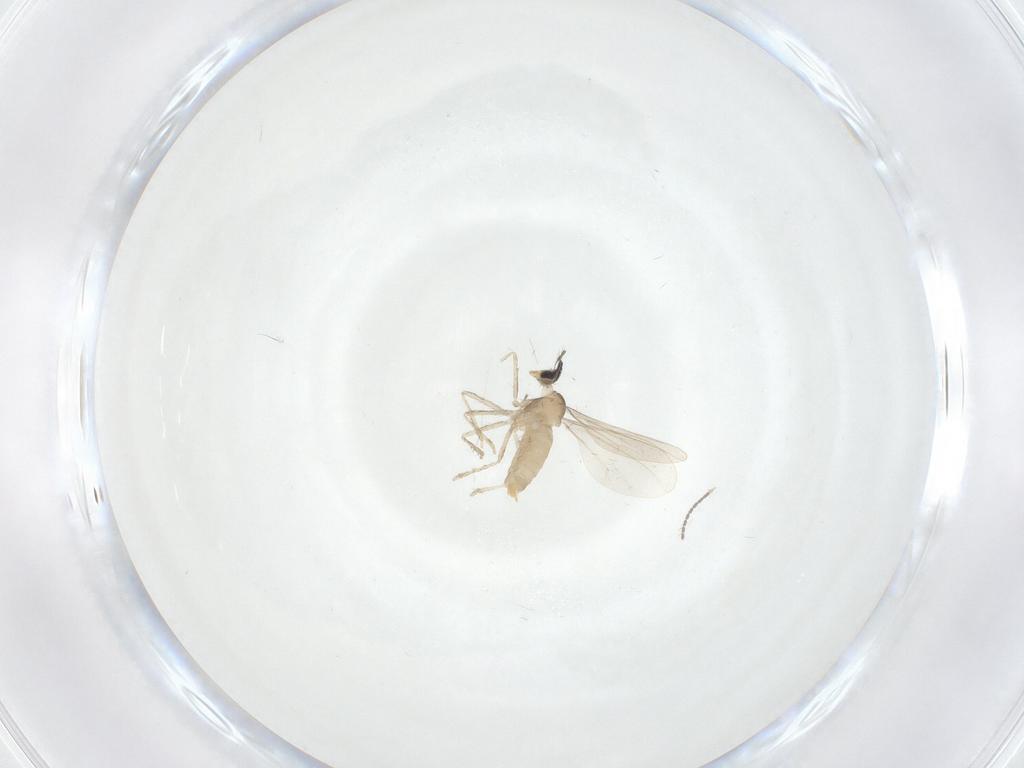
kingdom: Animalia
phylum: Arthropoda
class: Insecta
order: Diptera
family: Cecidomyiidae
